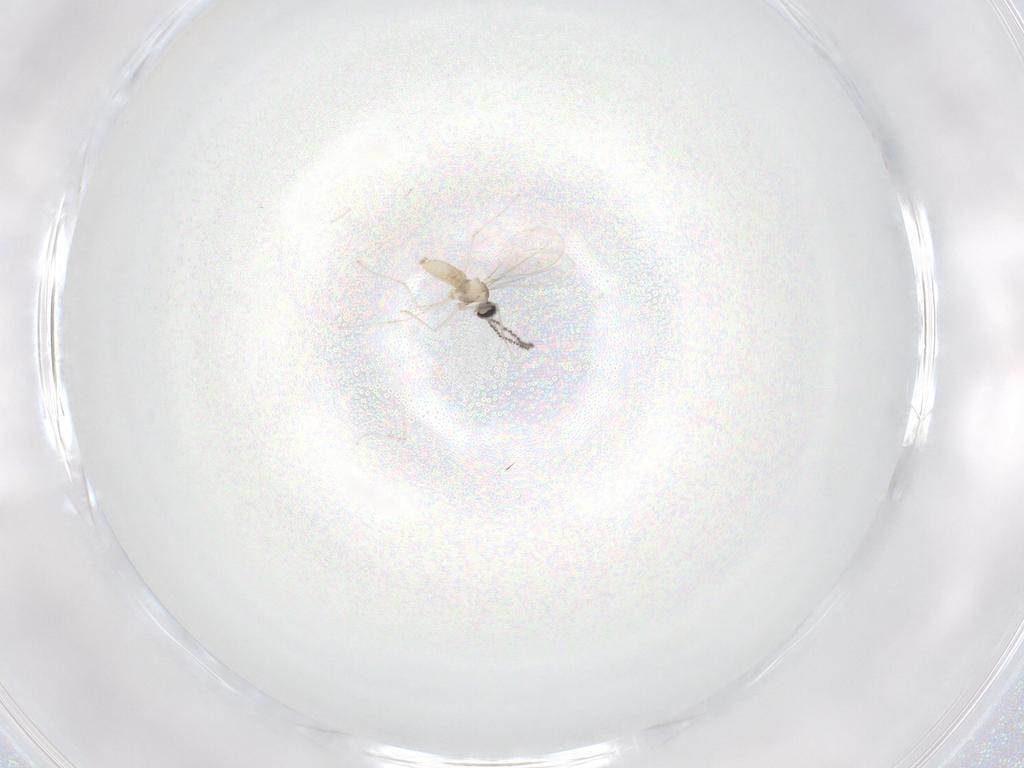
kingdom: Animalia
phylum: Arthropoda
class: Insecta
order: Diptera
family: Cecidomyiidae
